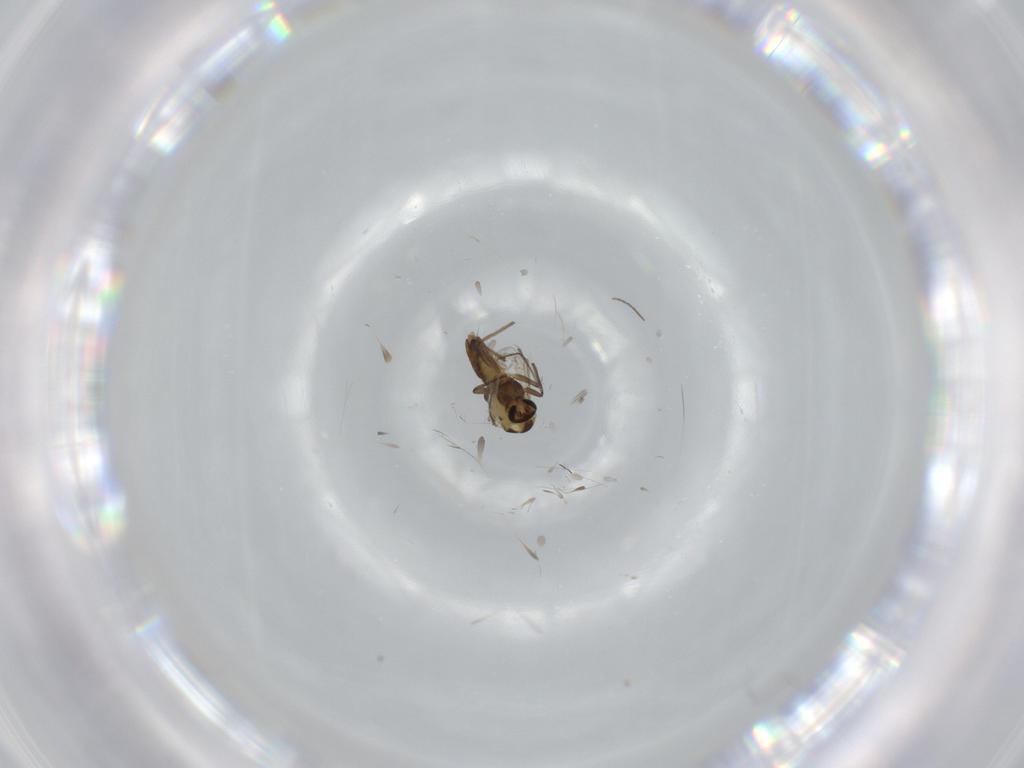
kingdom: Animalia
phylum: Arthropoda
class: Insecta
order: Diptera
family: Chironomidae
